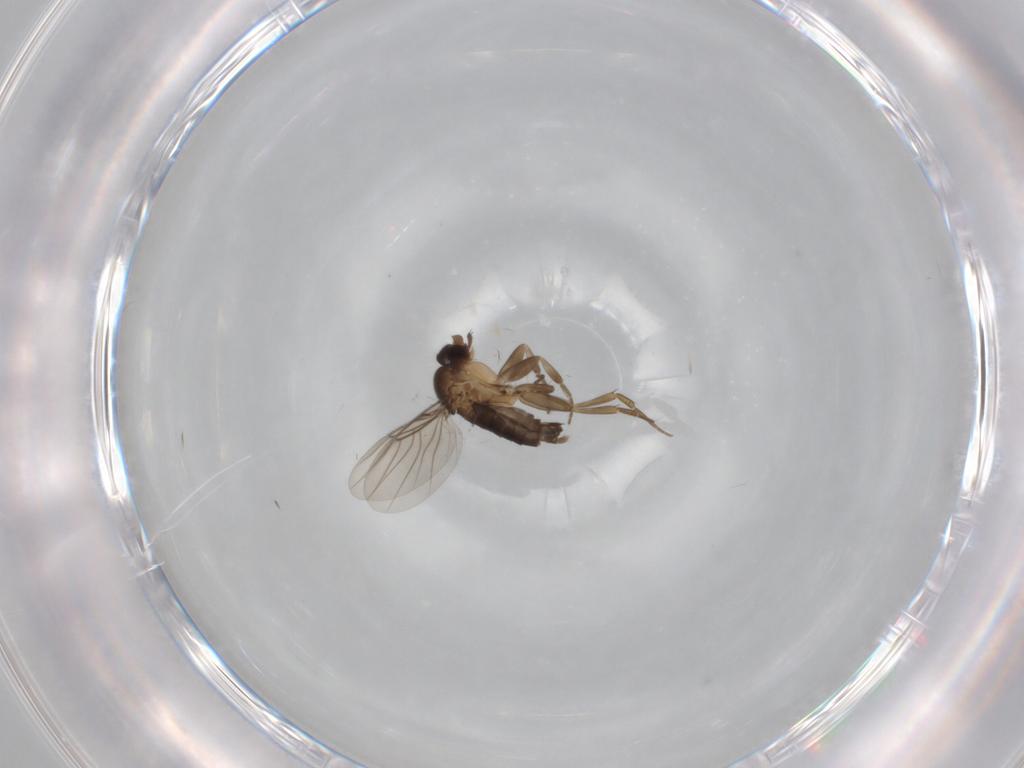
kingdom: Animalia
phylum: Arthropoda
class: Insecta
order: Diptera
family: Phoridae
